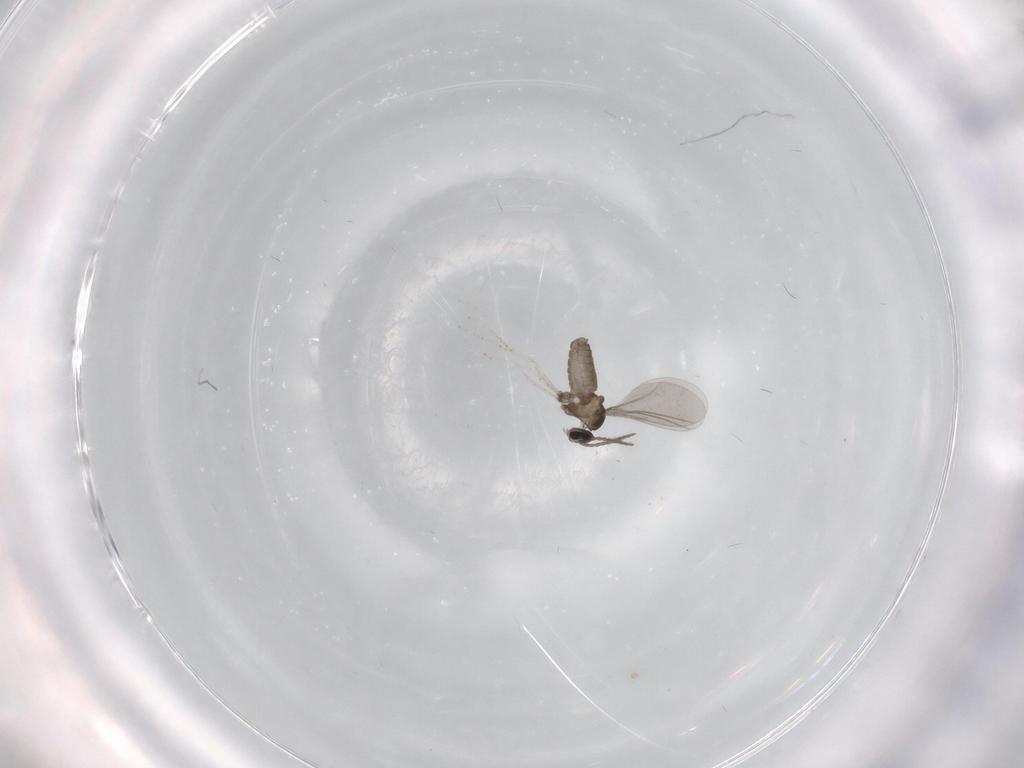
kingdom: Animalia
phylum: Arthropoda
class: Insecta
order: Diptera
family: Cecidomyiidae
